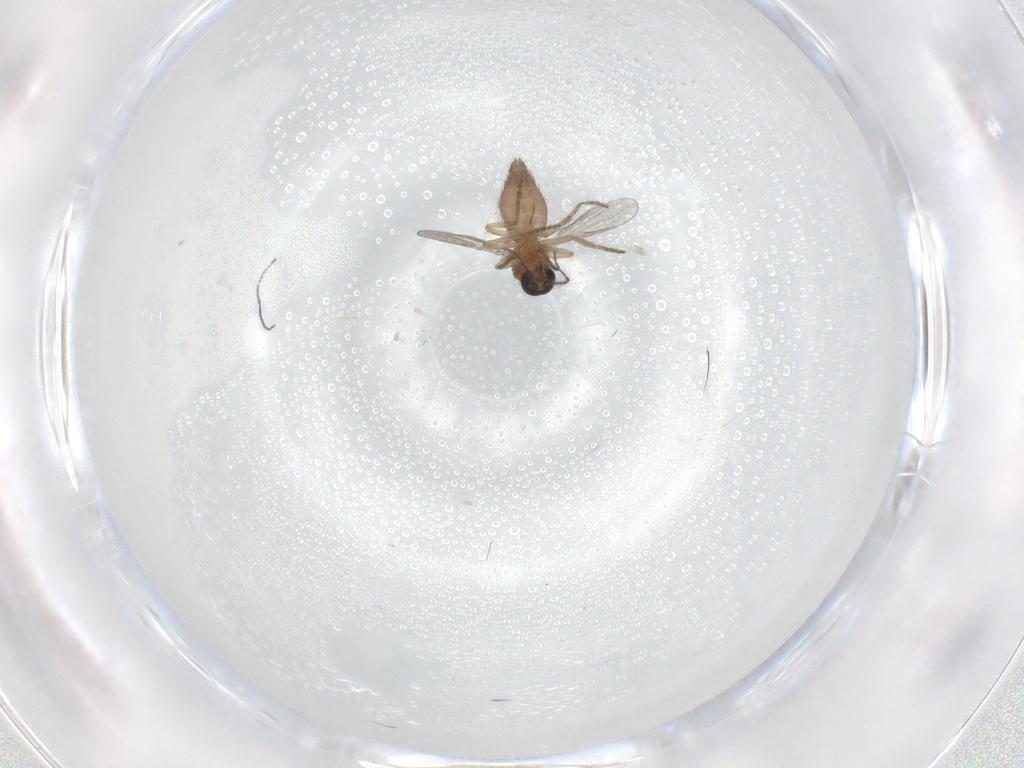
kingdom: Animalia
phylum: Arthropoda
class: Insecta
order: Diptera
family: Ceratopogonidae
